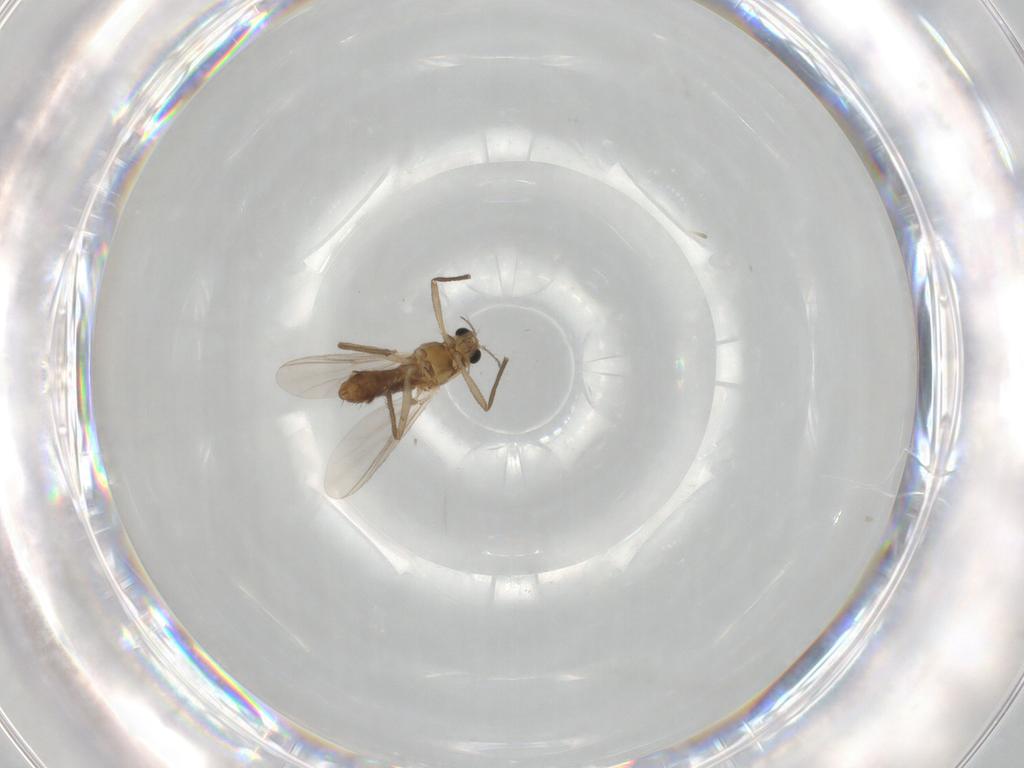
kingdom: Animalia
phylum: Arthropoda
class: Insecta
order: Diptera
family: Chironomidae
